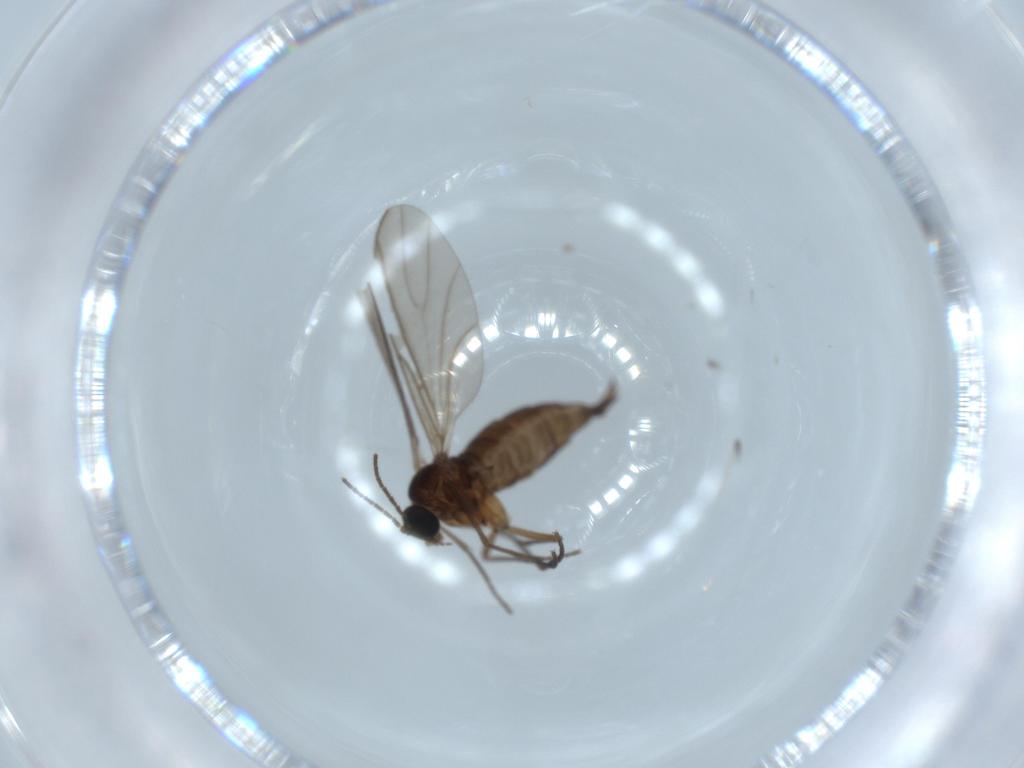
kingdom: Animalia
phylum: Arthropoda
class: Insecta
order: Diptera
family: Sciaridae
